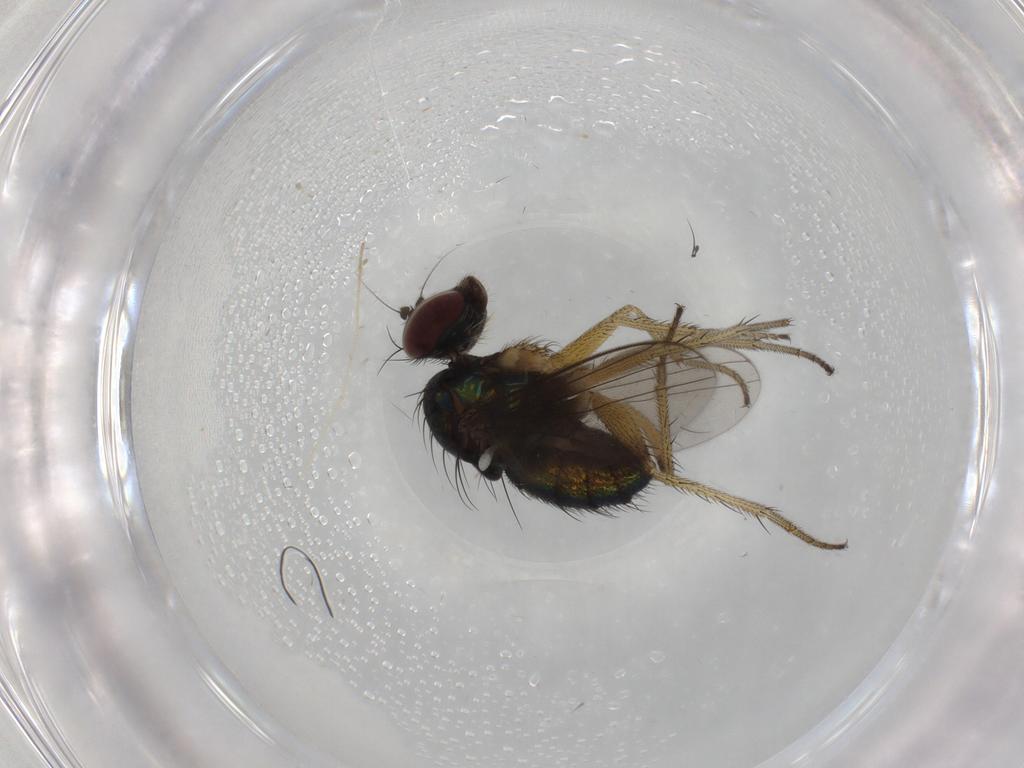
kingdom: Animalia
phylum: Arthropoda
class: Insecta
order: Diptera
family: Dolichopodidae
